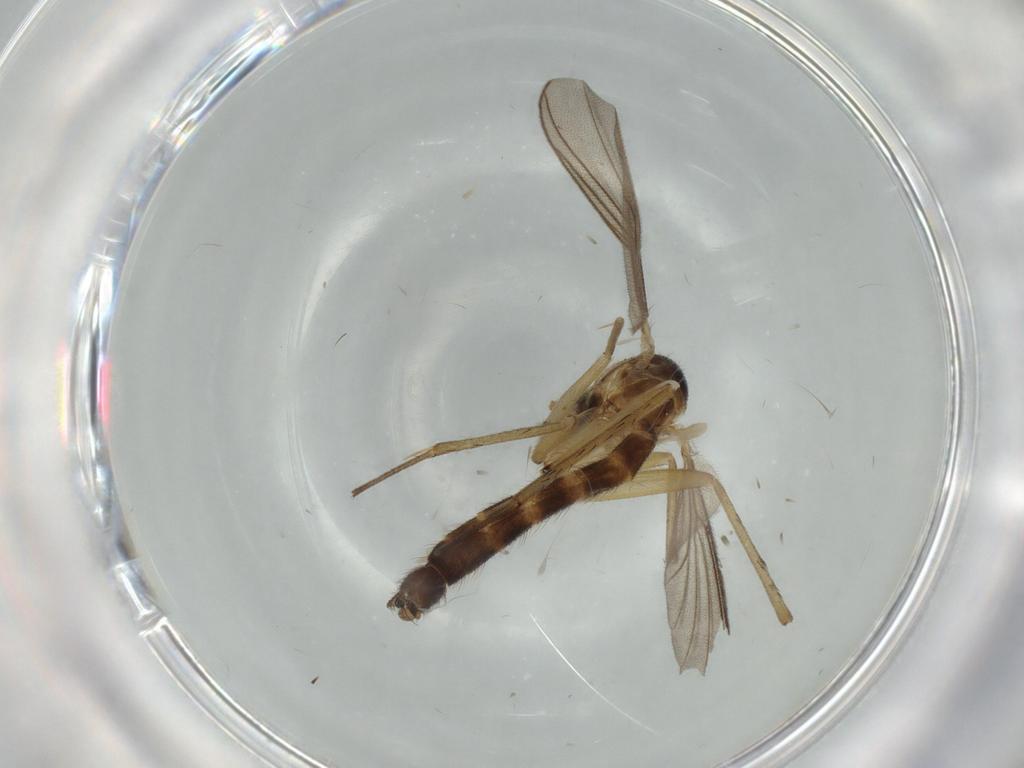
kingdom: Animalia
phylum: Arthropoda
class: Insecta
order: Diptera
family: Mycetophilidae
